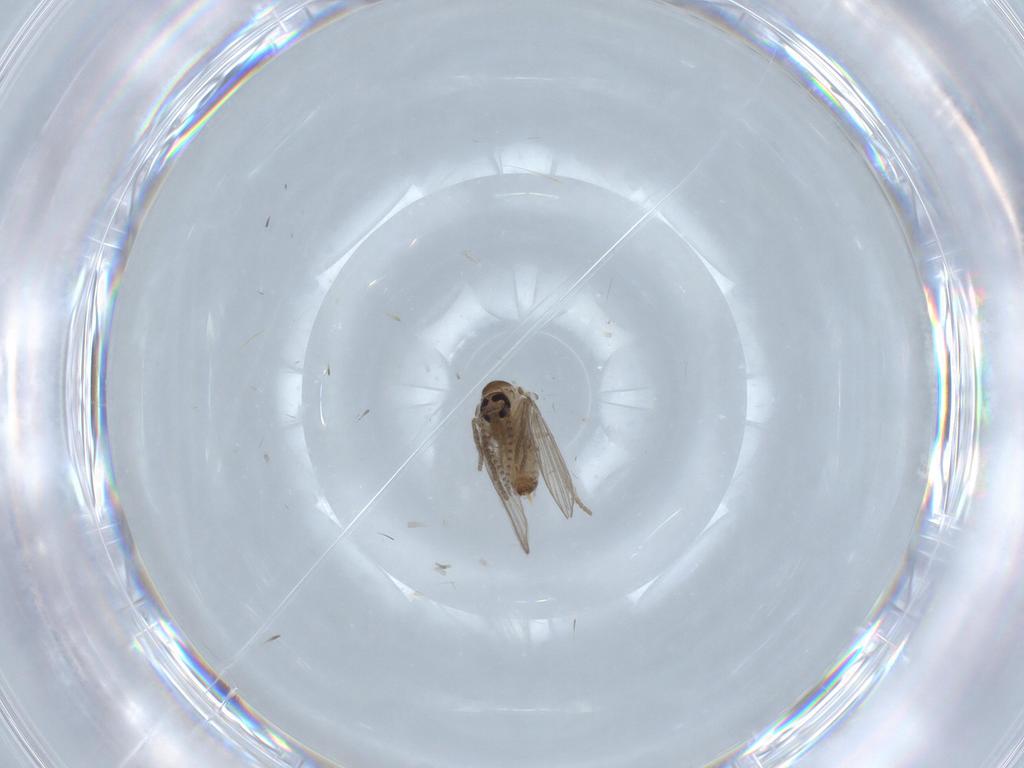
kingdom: Animalia
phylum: Arthropoda
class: Insecta
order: Diptera
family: Psychodidae
